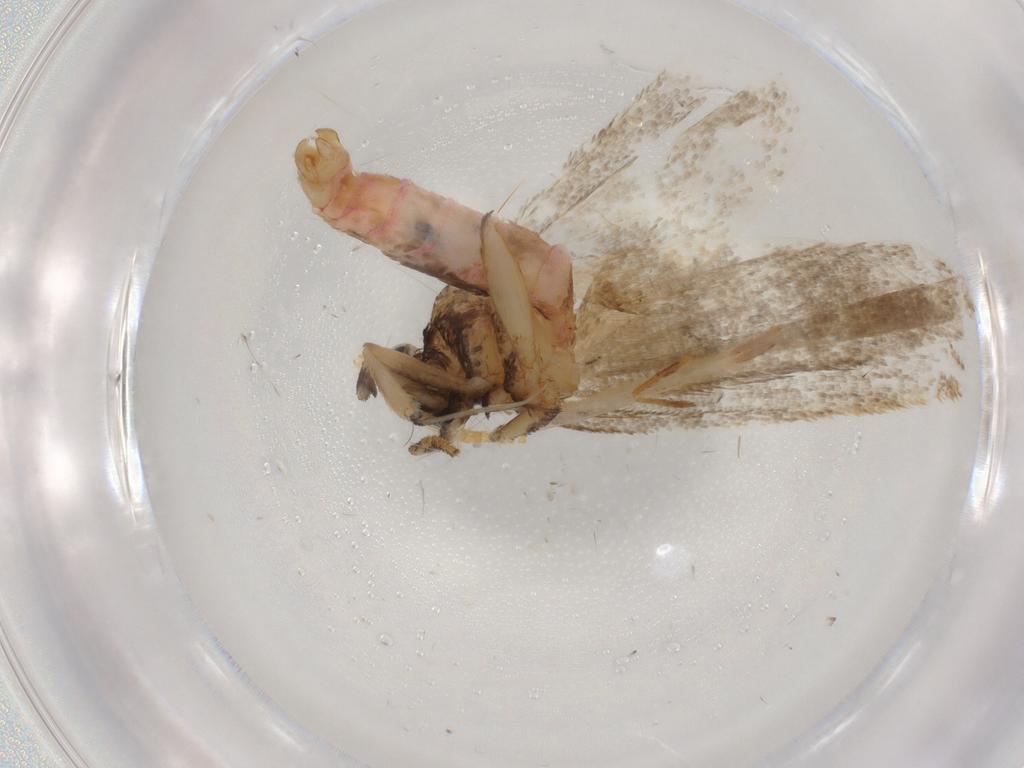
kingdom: Animalia
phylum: Arthropoda
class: Insecta
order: Lepidoptera
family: Lecithoceridae
